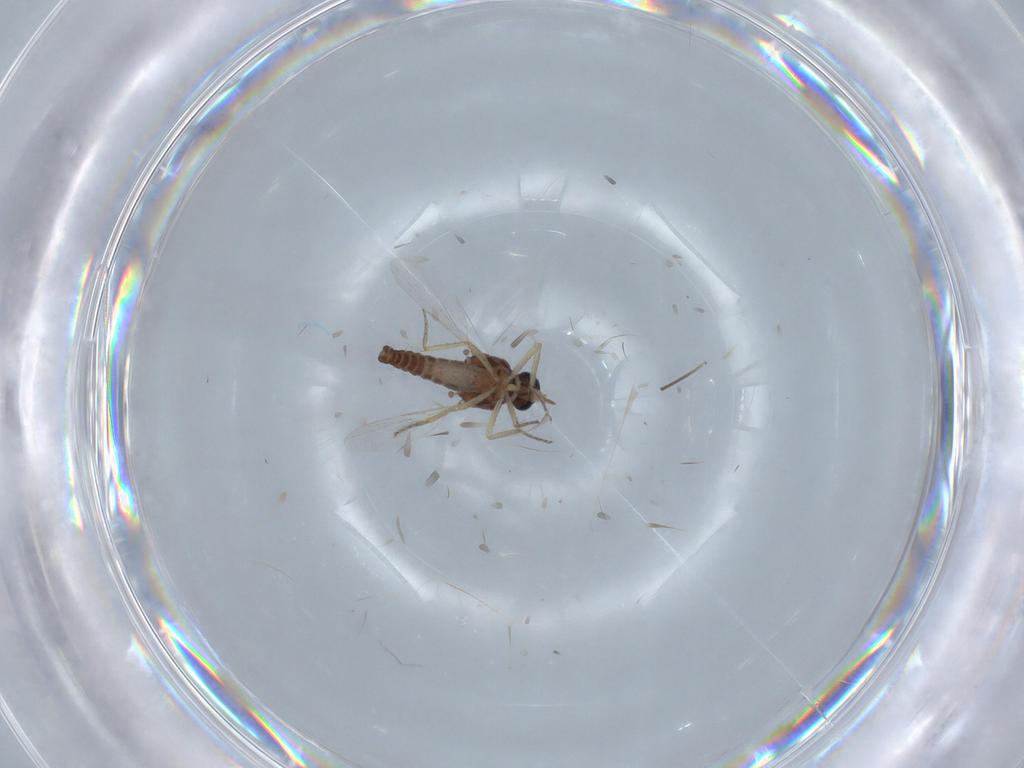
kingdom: Animalia
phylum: Arthropoda
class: Insecta
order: Diptera
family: Ceratopogonidae
